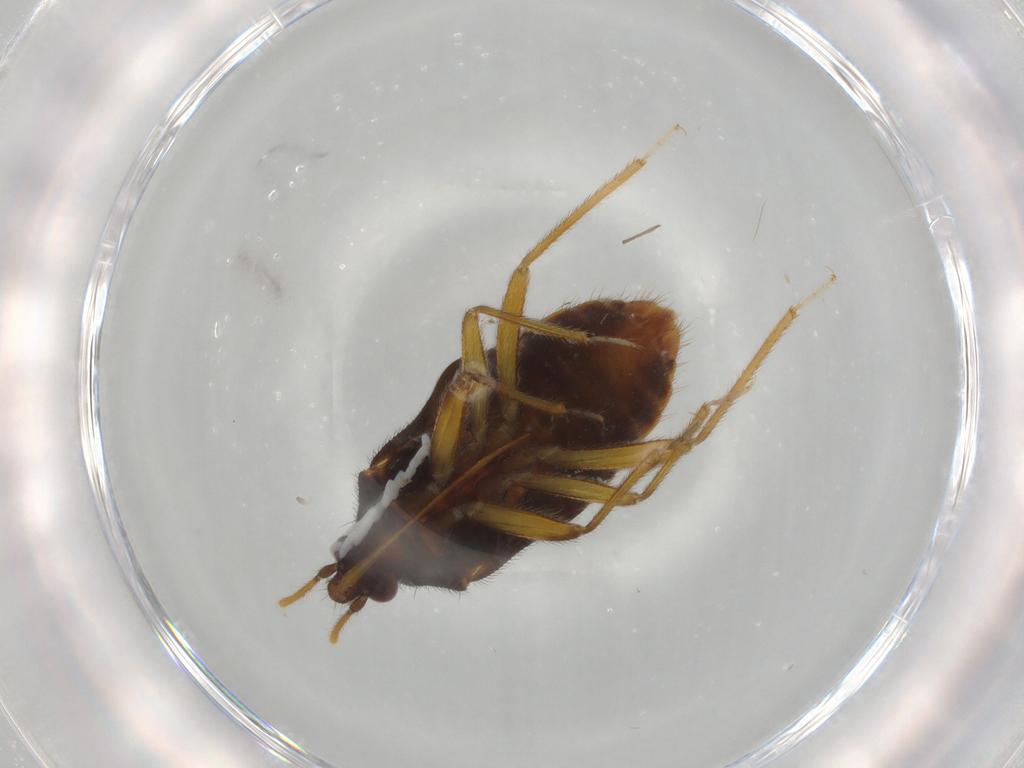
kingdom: Animalia
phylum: Arthropoda
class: Insecta
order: Hemiptera
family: Anthocoridae
